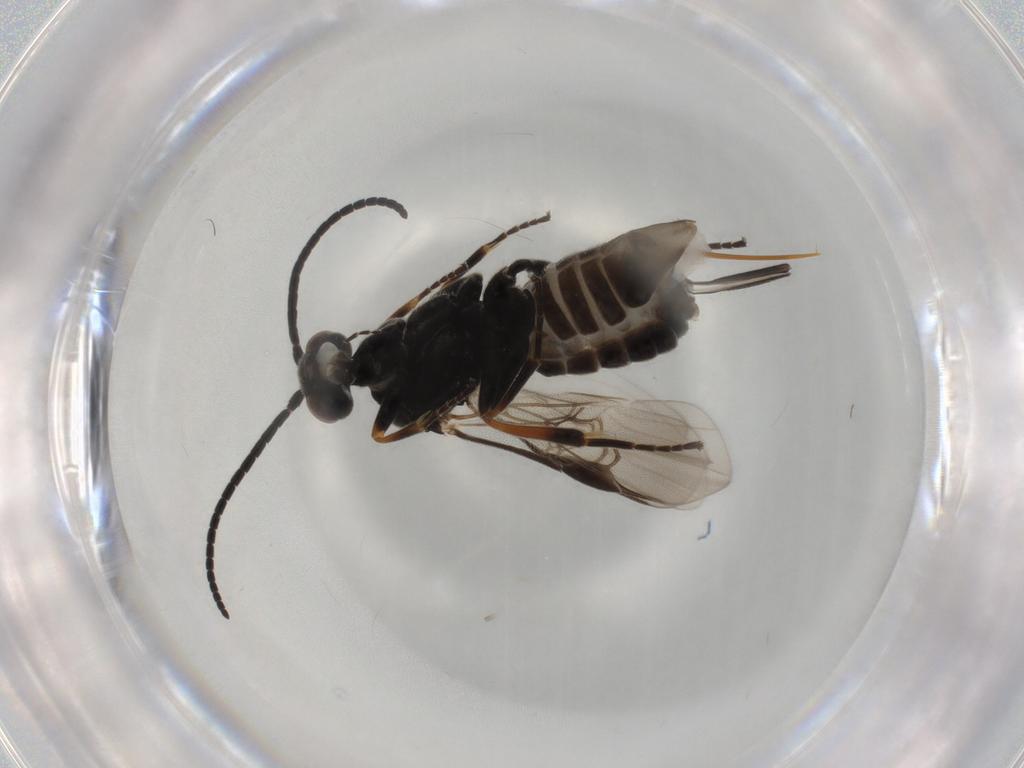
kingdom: Animalia
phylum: Arthropoda
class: Insecta
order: Hymenoptera
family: Braconidae
